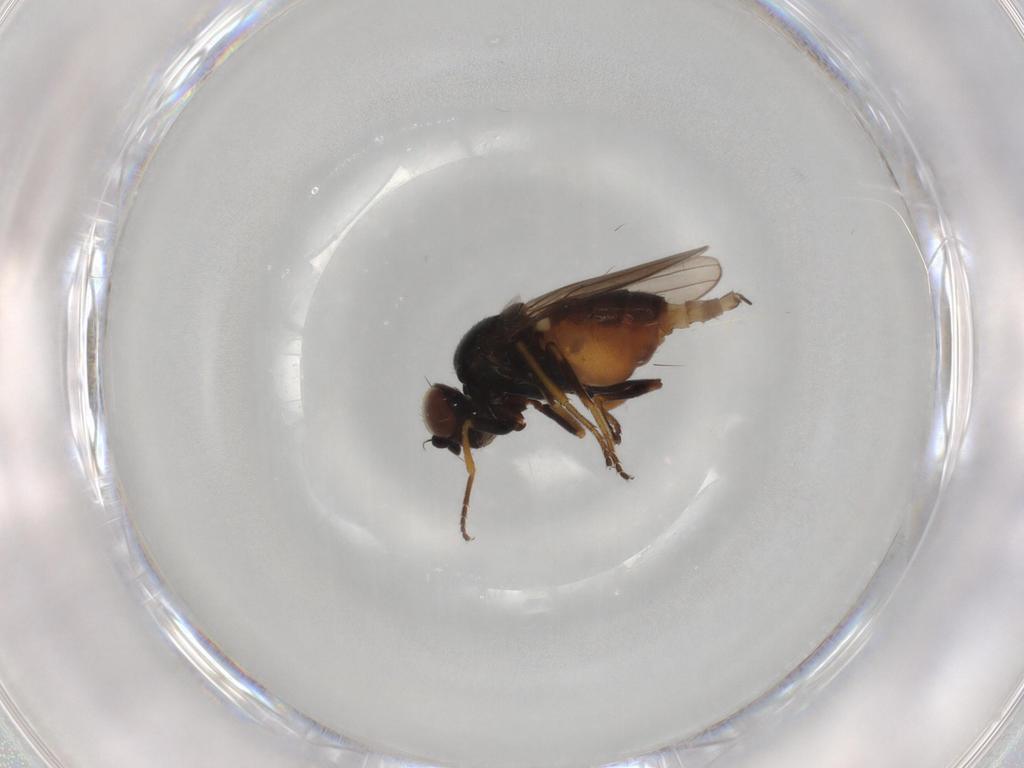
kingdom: Animalia
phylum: Arthropoda
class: Insecta
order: Diptera
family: Chloropidae
